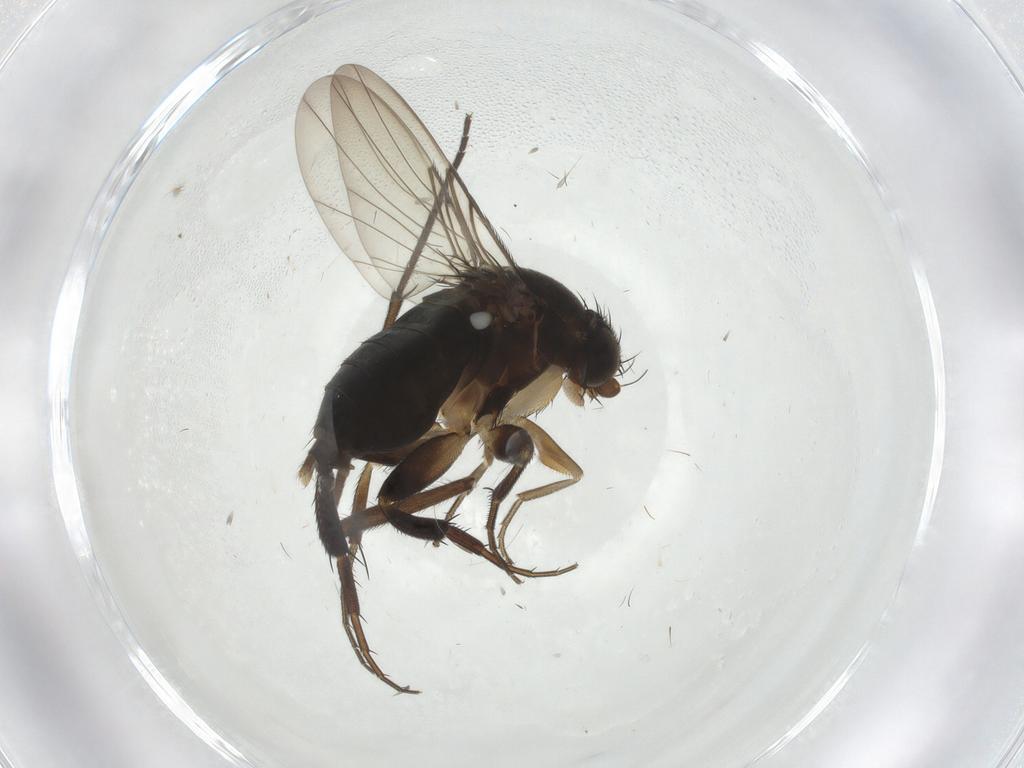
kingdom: Animalia
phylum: Arthropoda
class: Insecta
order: Diptera
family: Phoridae
